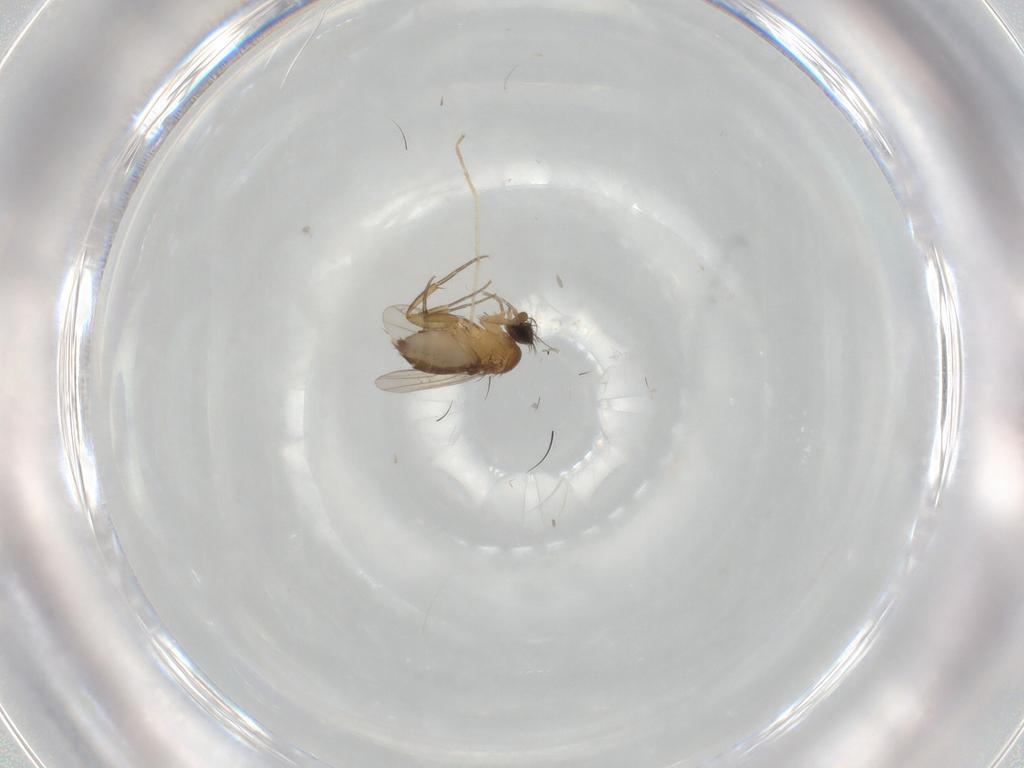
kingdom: Animalia
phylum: Arthropoda
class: Insecta
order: Diptera
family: Phoridae
